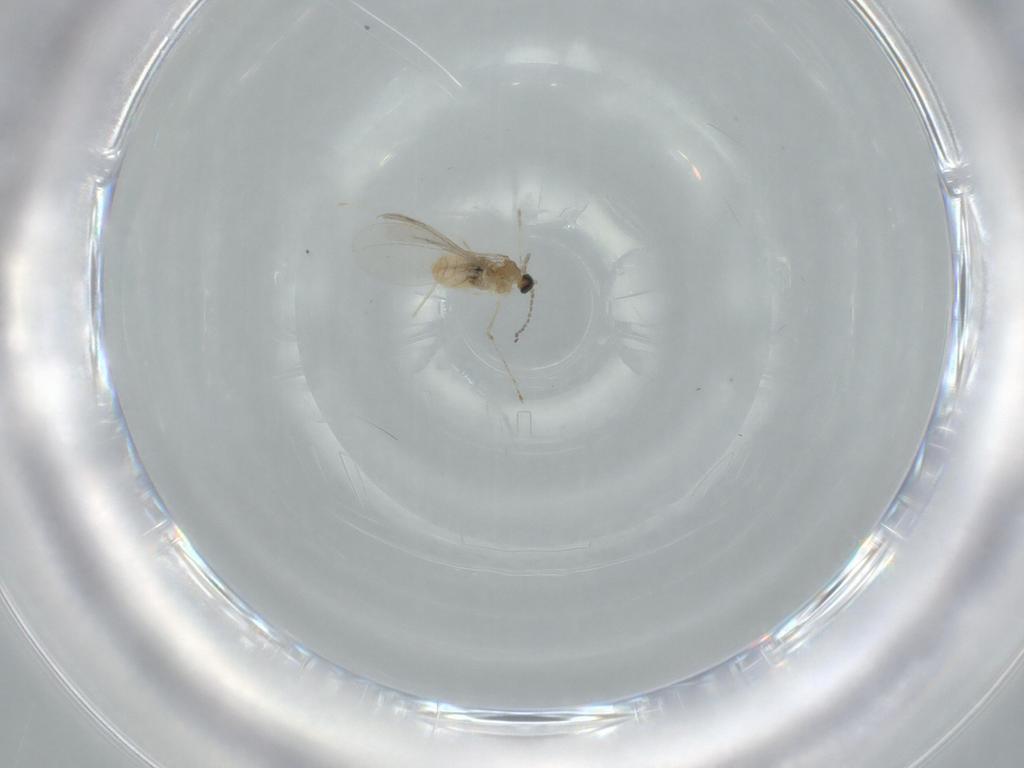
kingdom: Animalia
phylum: Arthropoda
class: Insecta
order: Diptera
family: Cecidomyiidae
